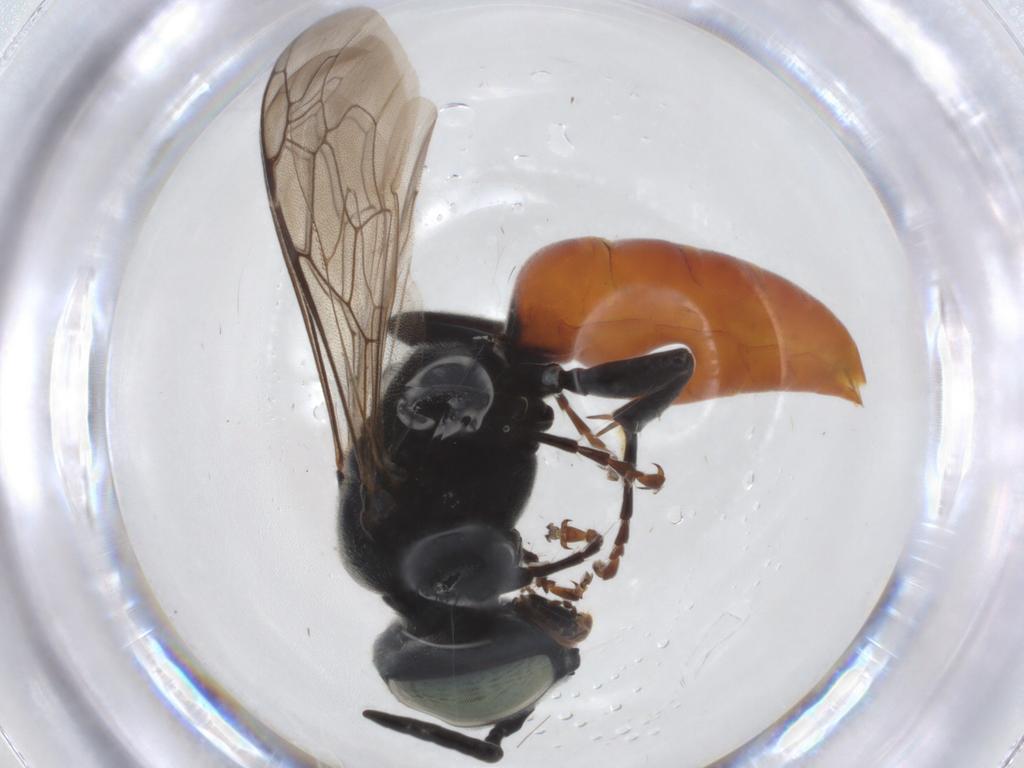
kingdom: Animalia
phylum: Arthropoda
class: Insecta
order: Hymenoptera
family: Crabronidae
